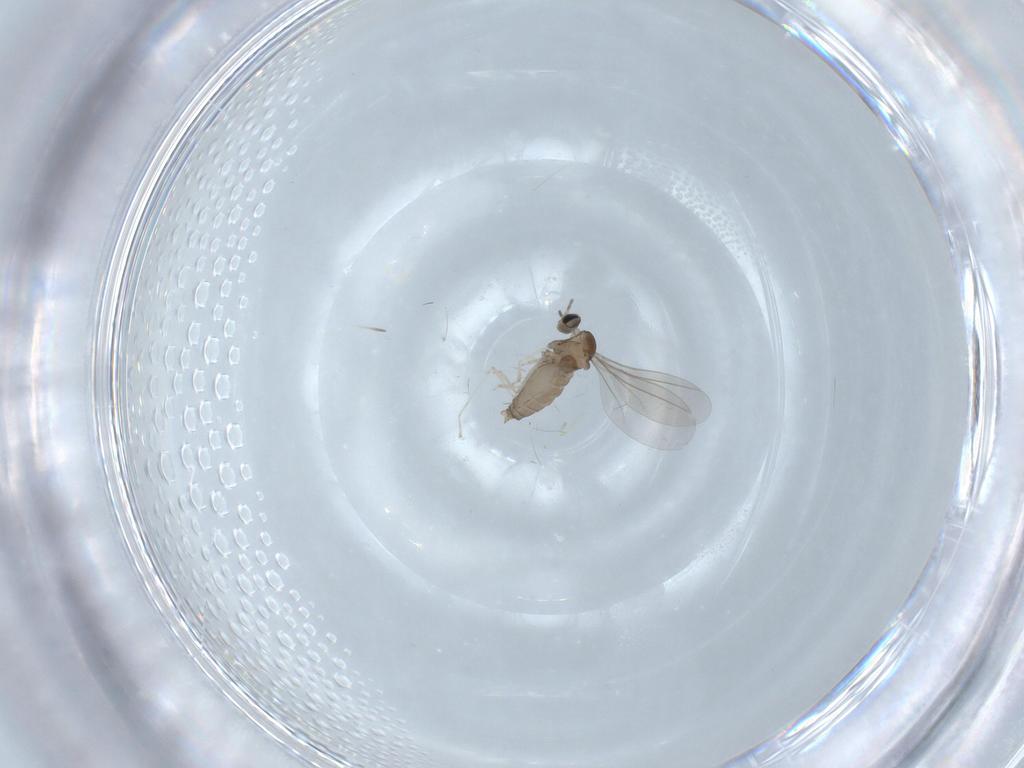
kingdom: Animalia
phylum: Arthropoda
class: Insecta
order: Diptera
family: Cecidomyiidae
